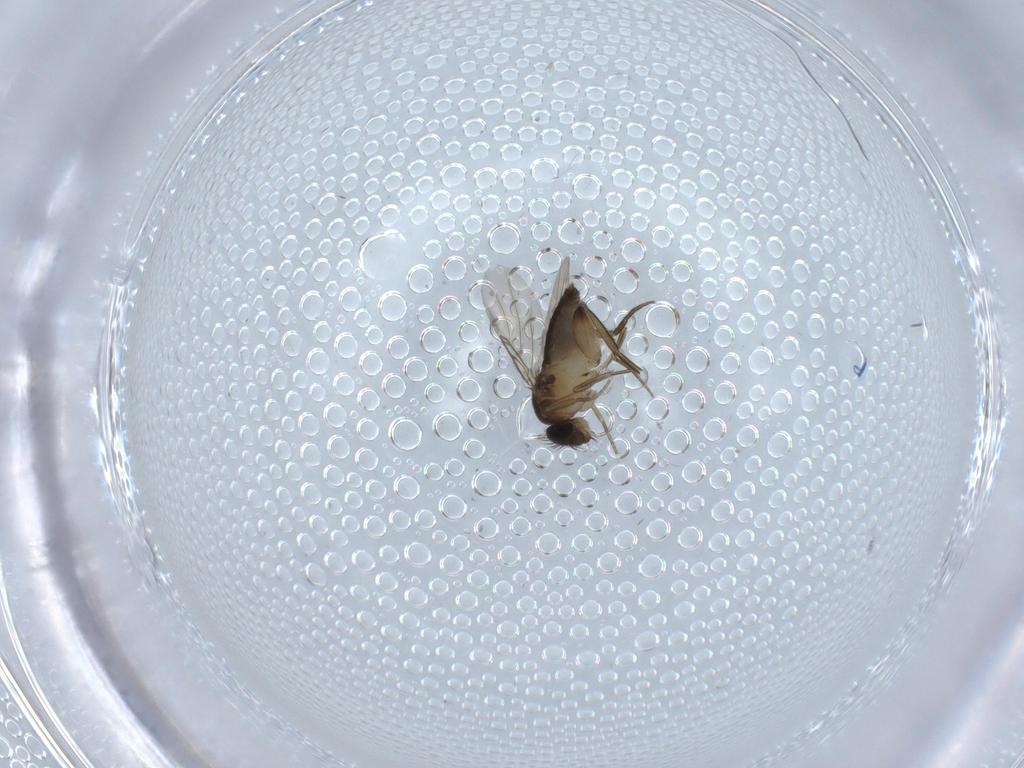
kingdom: Animalia
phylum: Arthropoda
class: Insecta
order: Diptera
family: Phoridae
